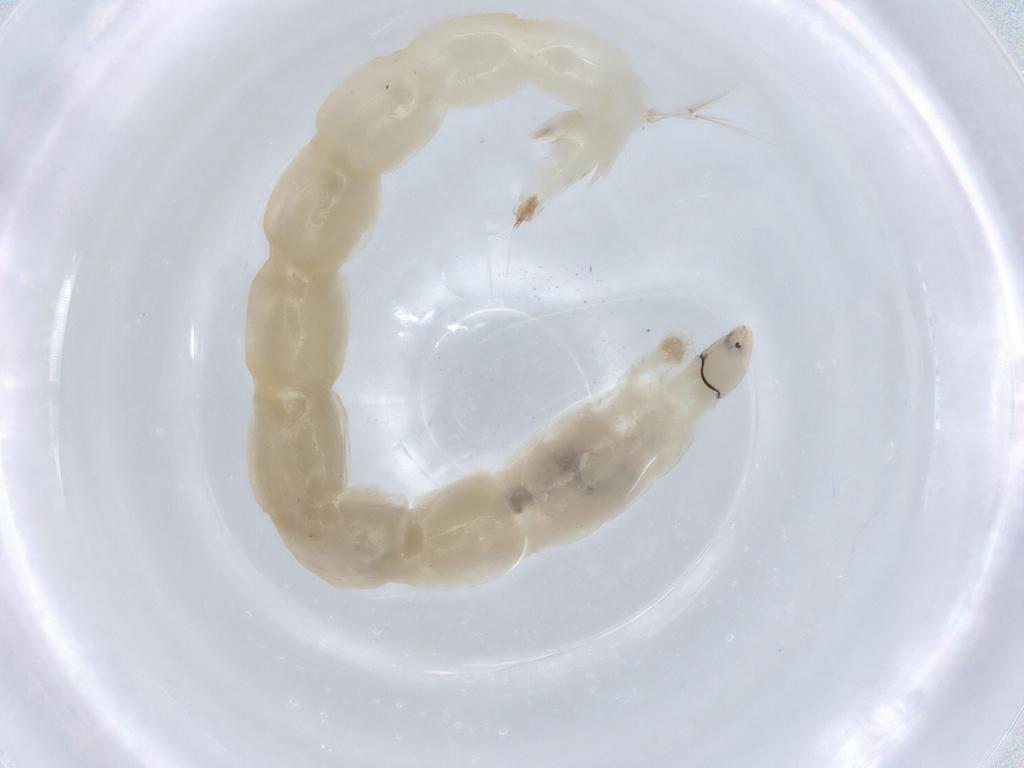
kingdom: Animalia
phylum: Arthropoda
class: Insecta
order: Diptera
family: Chironomidae
